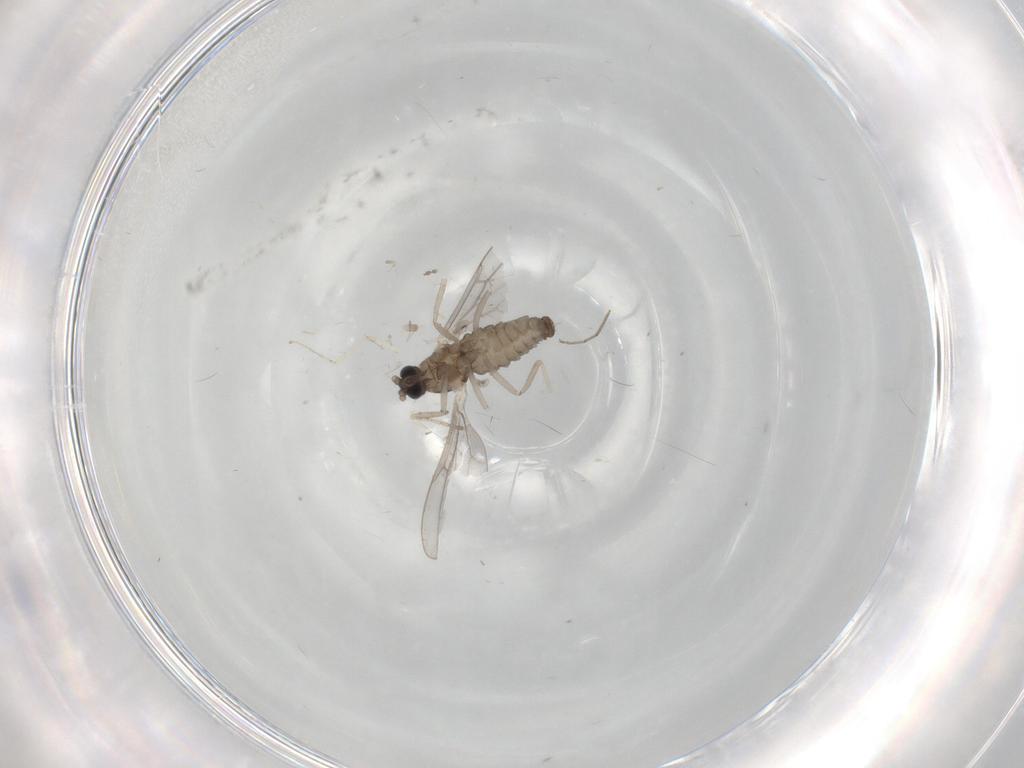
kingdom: Animalia
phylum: Arthropoda
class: Insecta
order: Diptera
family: Cecidomyiidae
